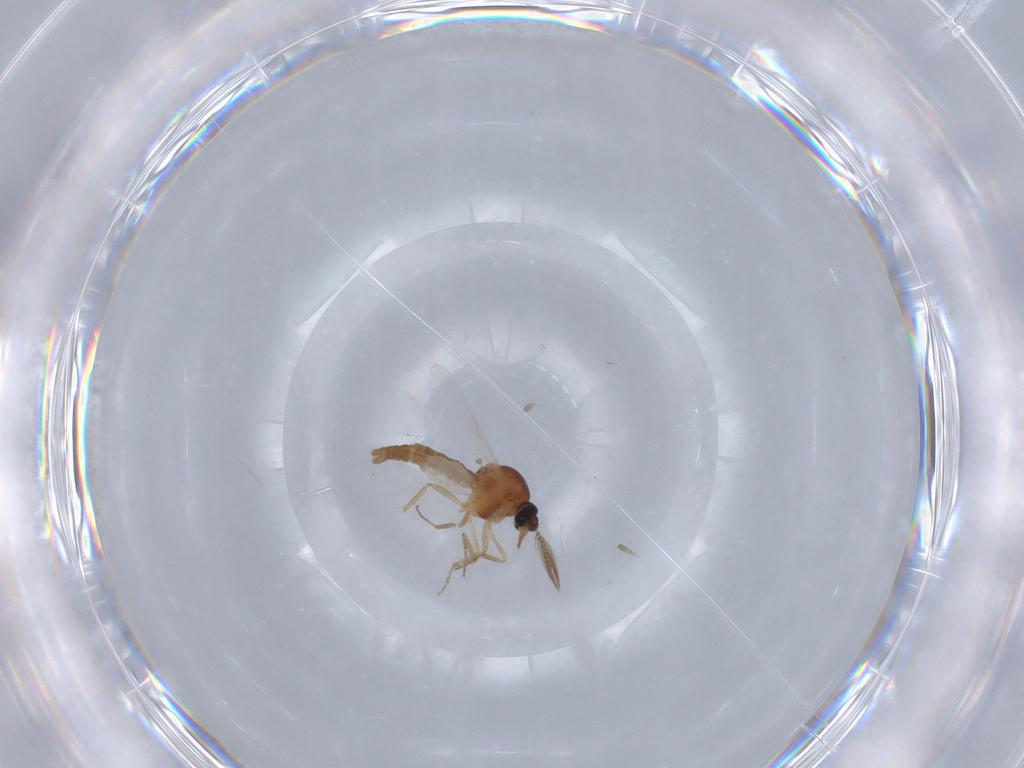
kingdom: Animalia
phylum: Arthropoda
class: Insecta
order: Diptera
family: Ceratopogonidae
